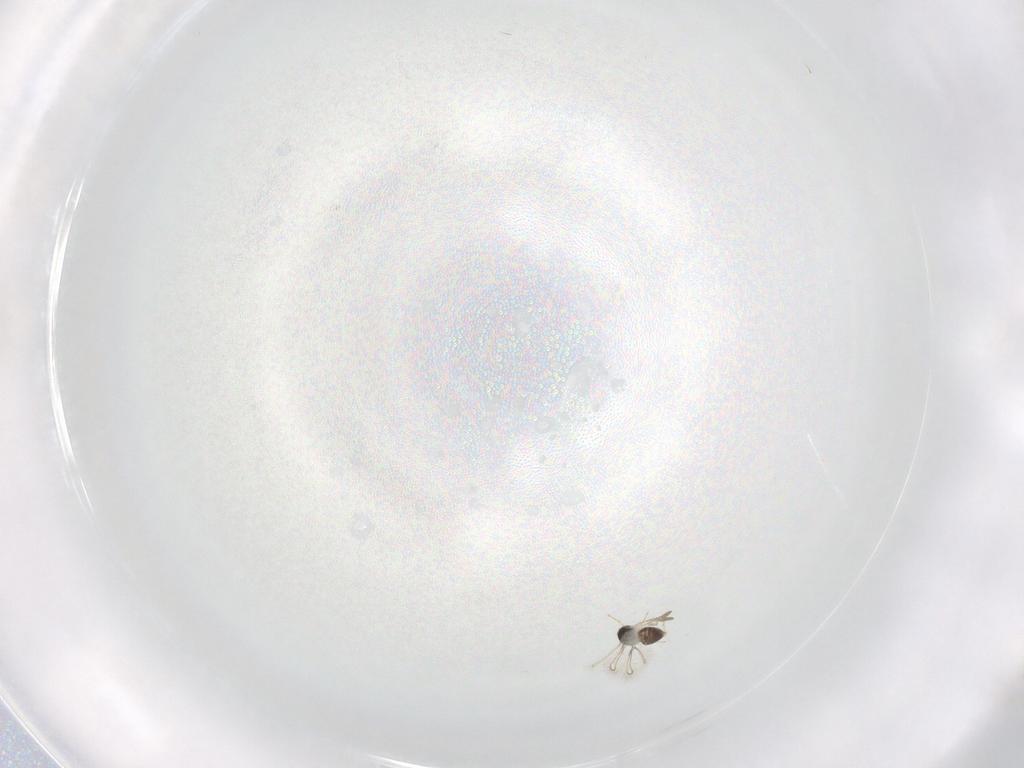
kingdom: Animalia
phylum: Arthropoda
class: Insecta
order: Hymenoptera
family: Mymaridae
